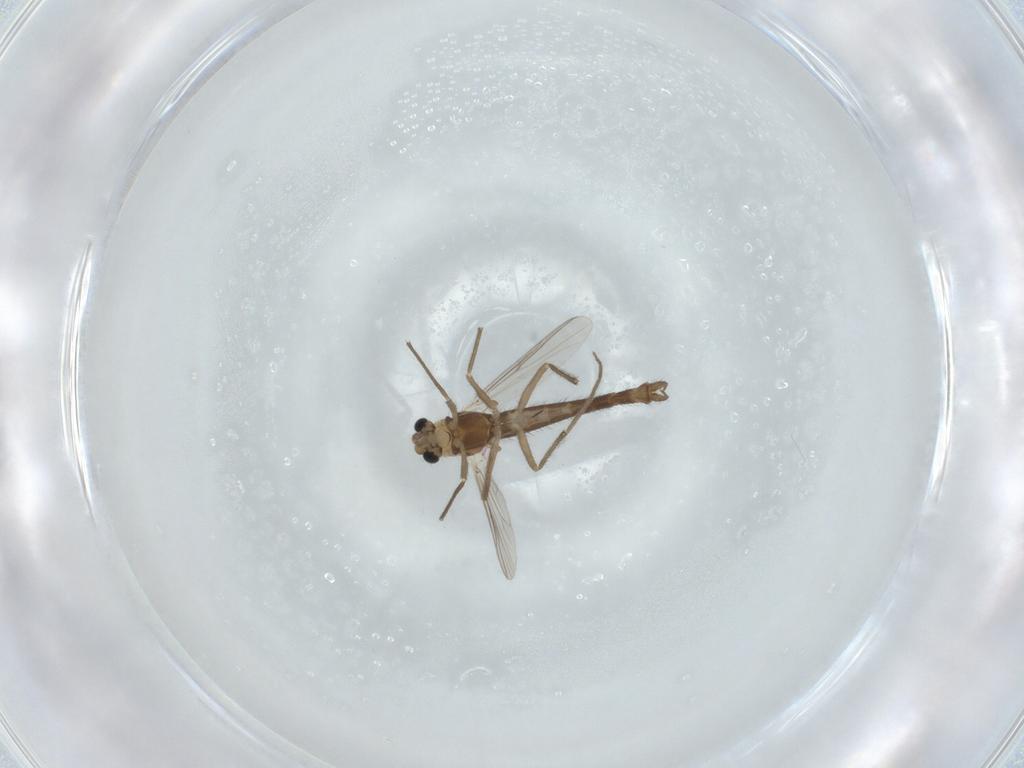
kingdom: Animalia
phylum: Arthropoda
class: Insecta
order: Diptera
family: Chironomidae
